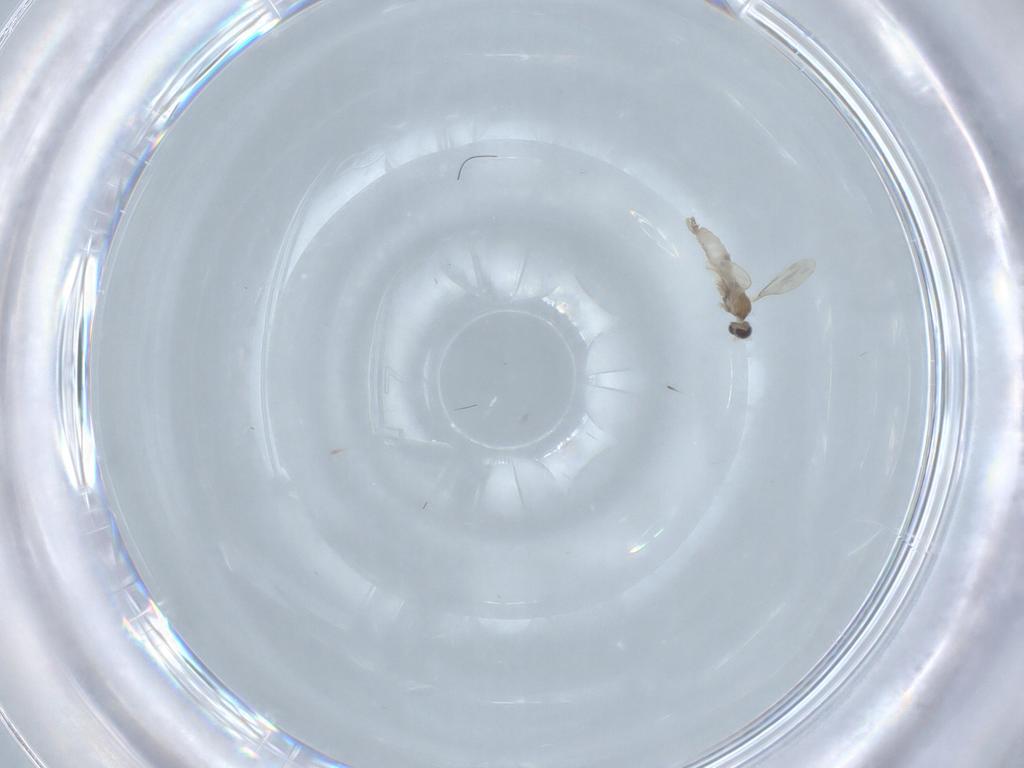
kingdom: Animalia
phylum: Arthropoda
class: Insecta
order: Diptera
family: Cecidomyiidae
